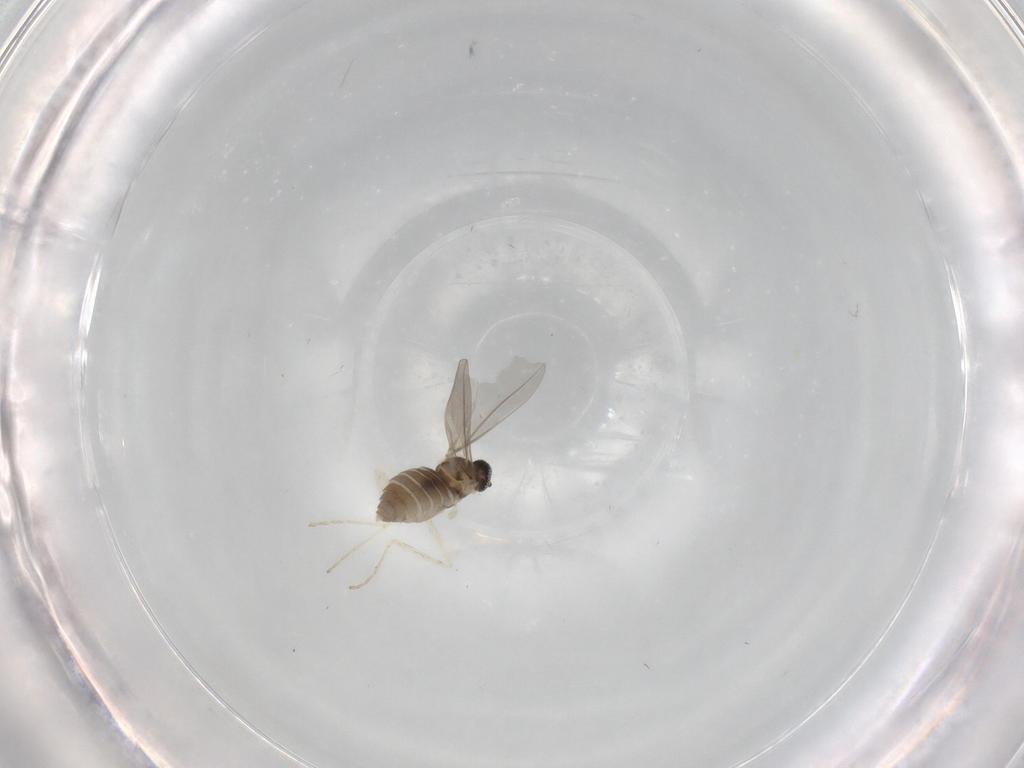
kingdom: Animalia
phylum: Arthropoda
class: Insecta
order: Diptera
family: Cecidomyiidae
